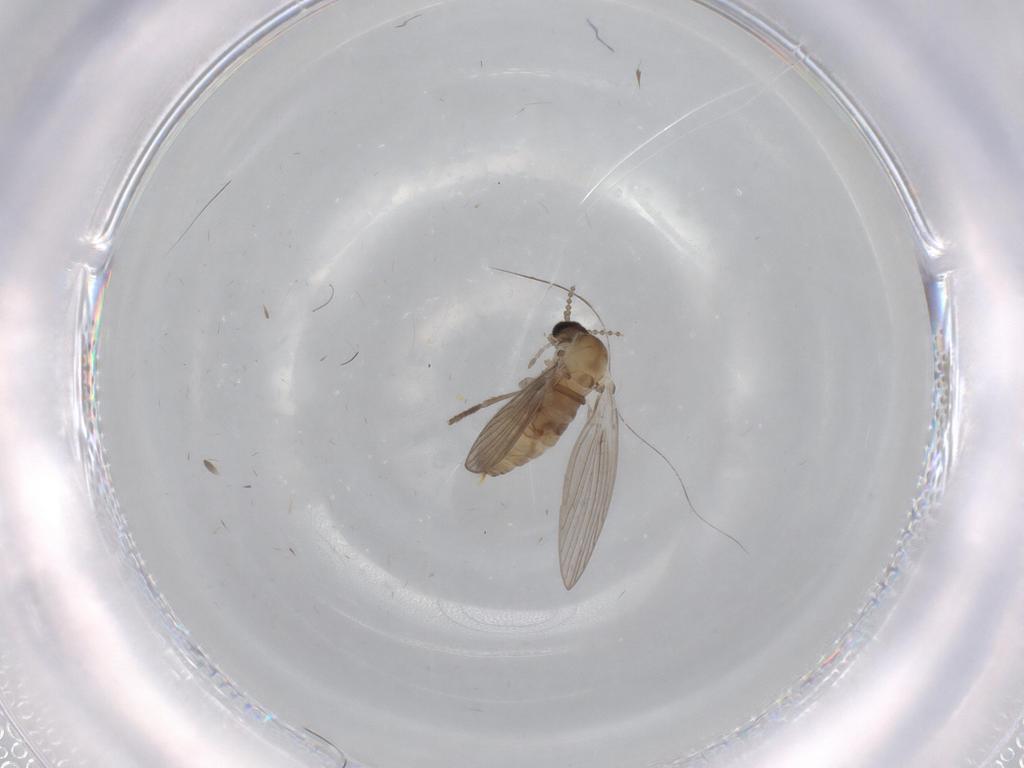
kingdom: Animalia
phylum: Arthropoda
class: Insecta
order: Diptera
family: Psychodidae
